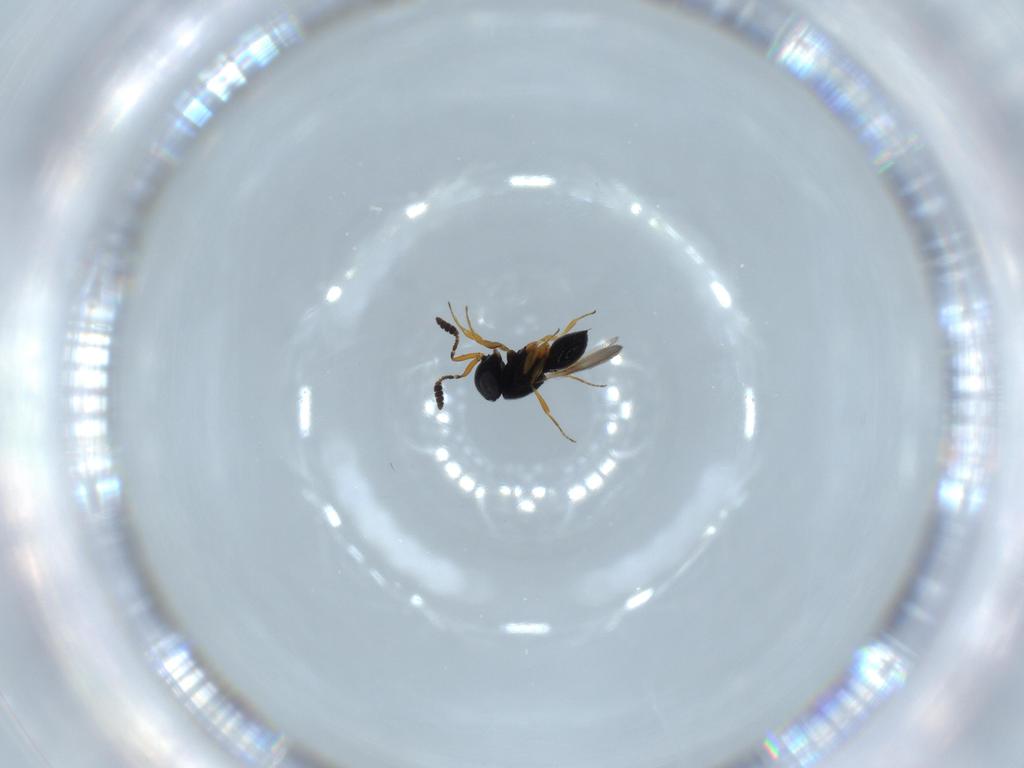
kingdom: Animalia
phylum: Arthropoda
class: Insecta
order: Hymenoptera
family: Scelionidae
